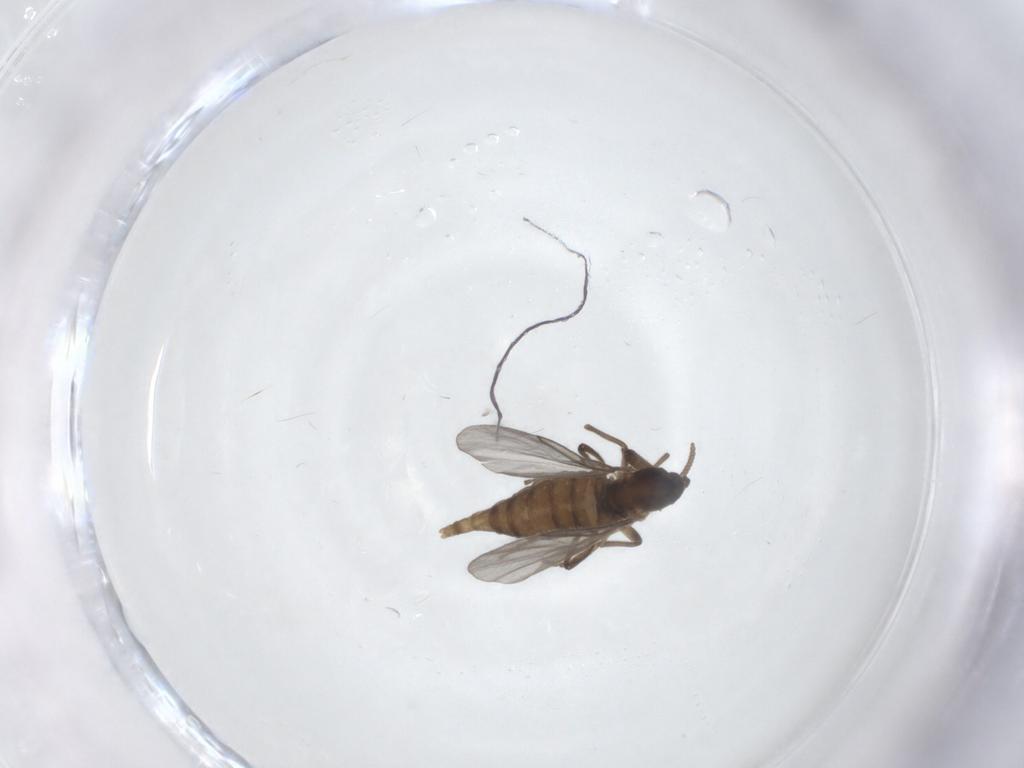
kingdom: Animalia
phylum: Arthropoda
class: Insecta
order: Diptera
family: Cecidomyiidae
